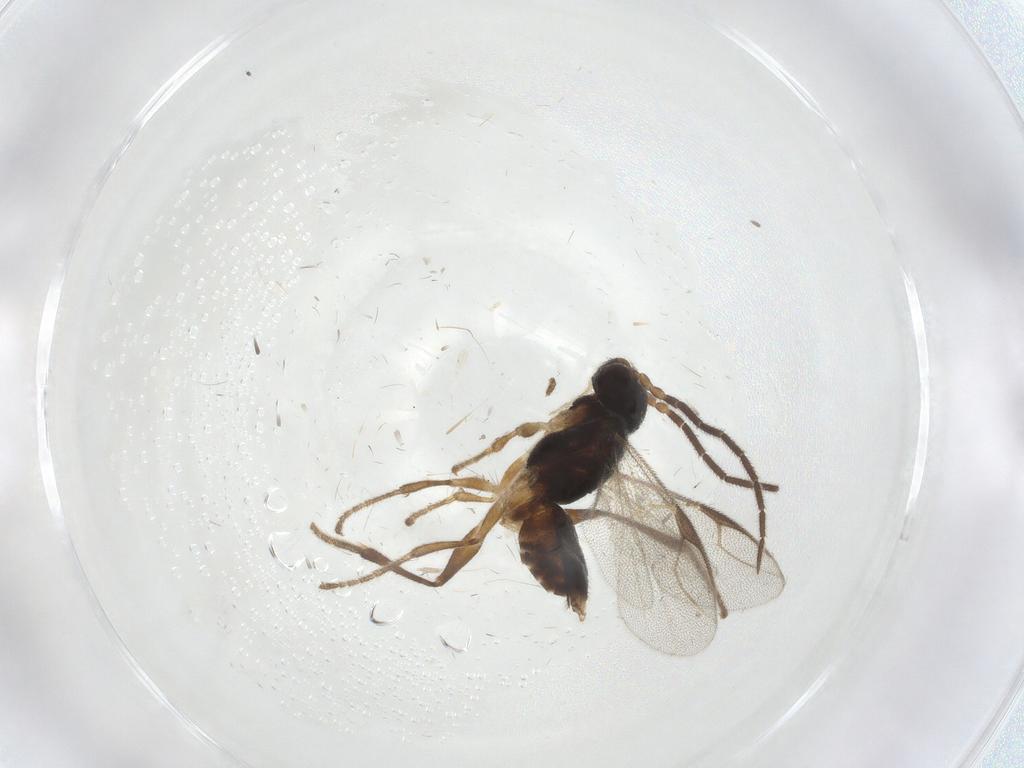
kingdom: Animalia
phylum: Arthropoda
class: Insecta
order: Hymenoptera
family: Dryinidae
